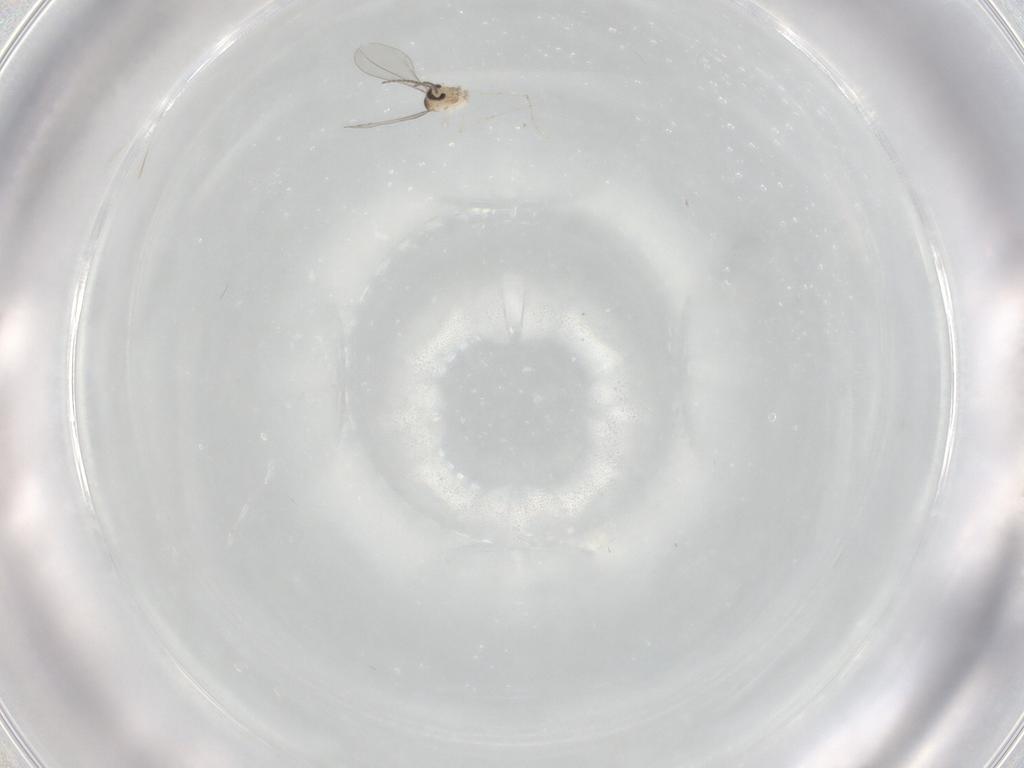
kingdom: Animalia
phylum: Arthropoda
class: Insecta
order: Diptera
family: Cecidomyiidae
